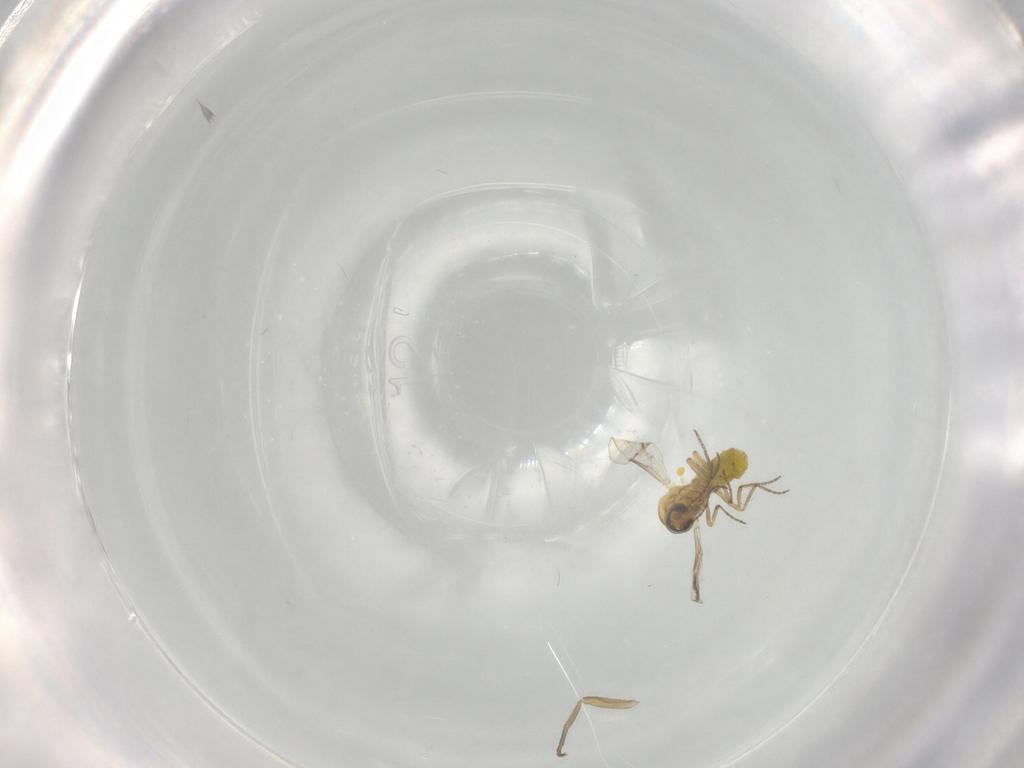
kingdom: Animalia
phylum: Arthropoda
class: Insecta
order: Diptera
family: Ceratopogonidae
